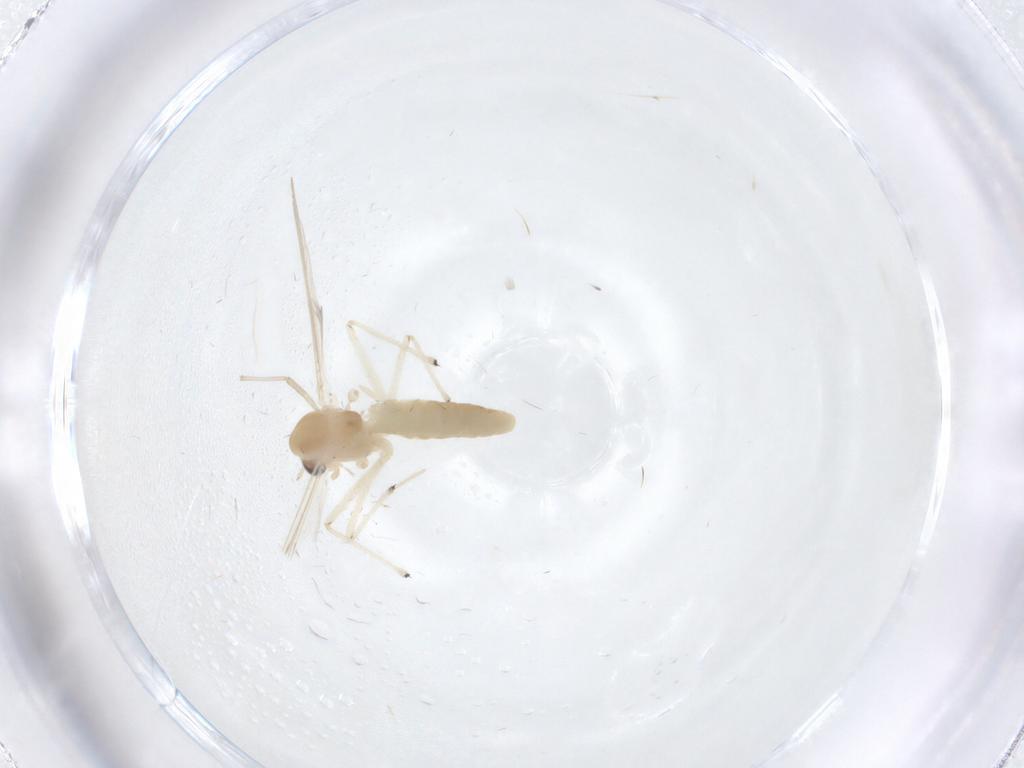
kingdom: Animalia
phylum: Arthropoda
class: Insecta
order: Diptera
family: Chironomidae
